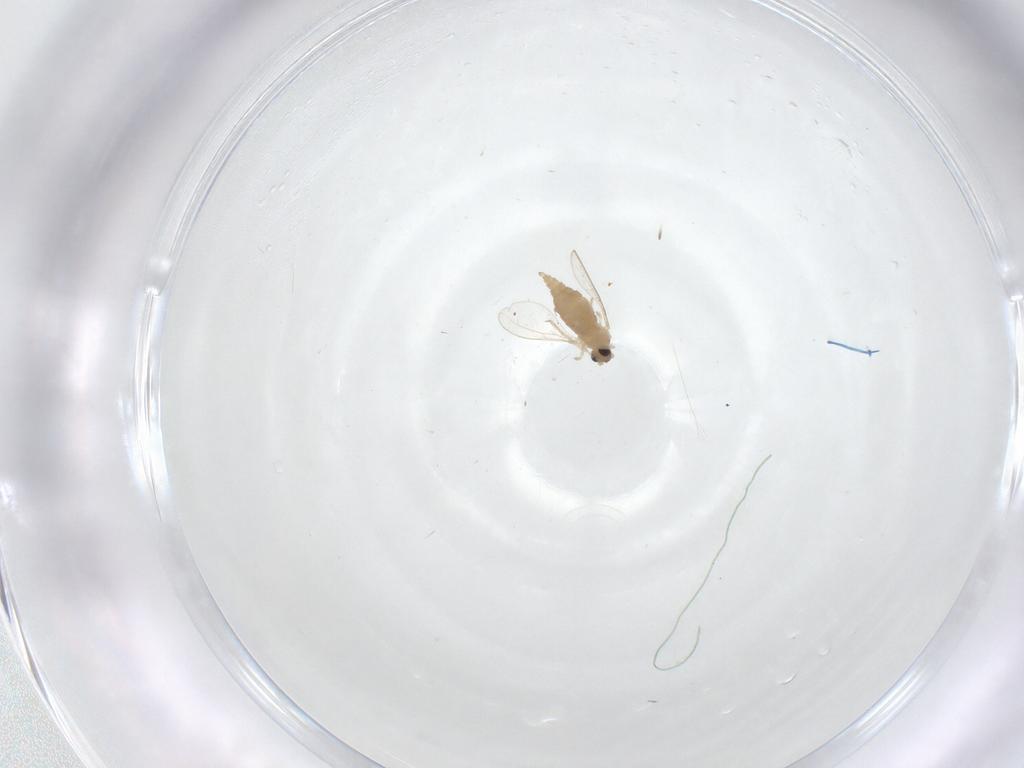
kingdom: Animalia
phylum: Arthropoda
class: Insecta
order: Diptera
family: Cecidomyiidae
